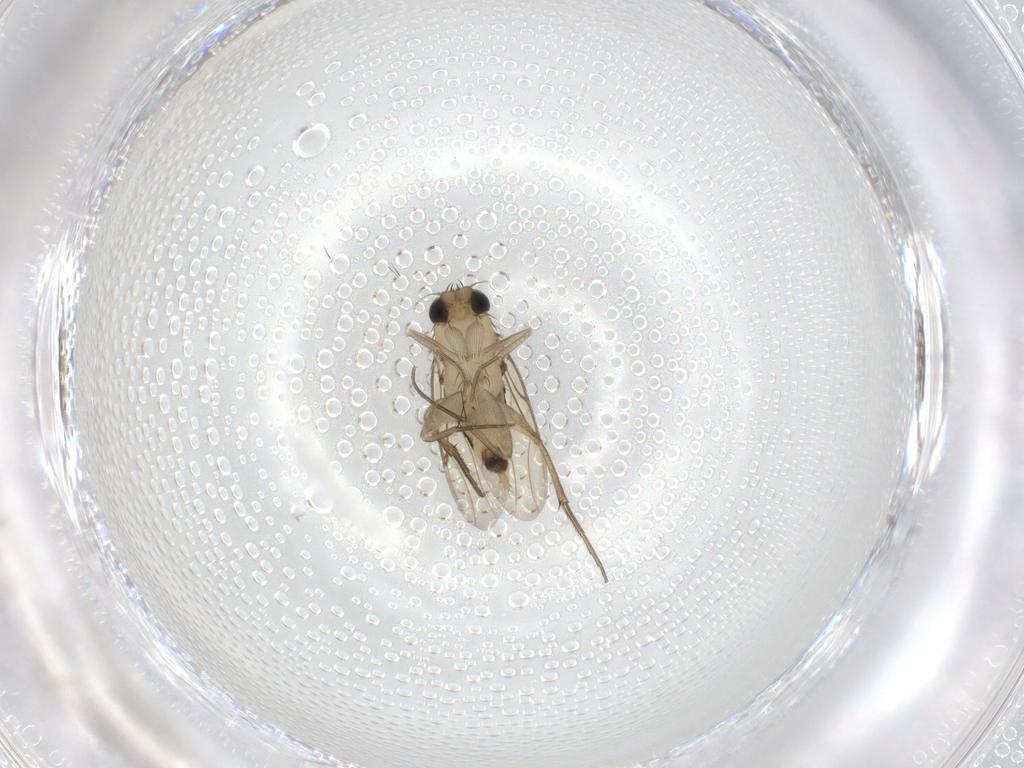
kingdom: Animalia
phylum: Arthropoda
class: Insecta
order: Diptera
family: Phoridae
